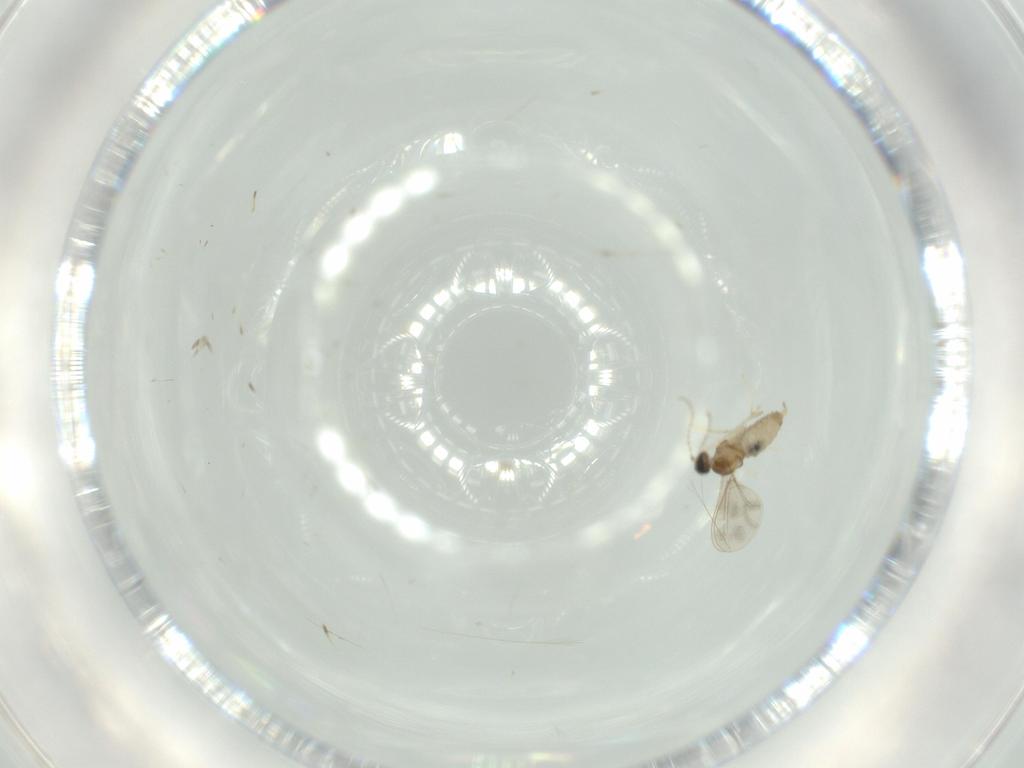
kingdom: Animalia
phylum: Arthropoda
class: Insecta
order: Diptera
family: Cecidomyiidae
